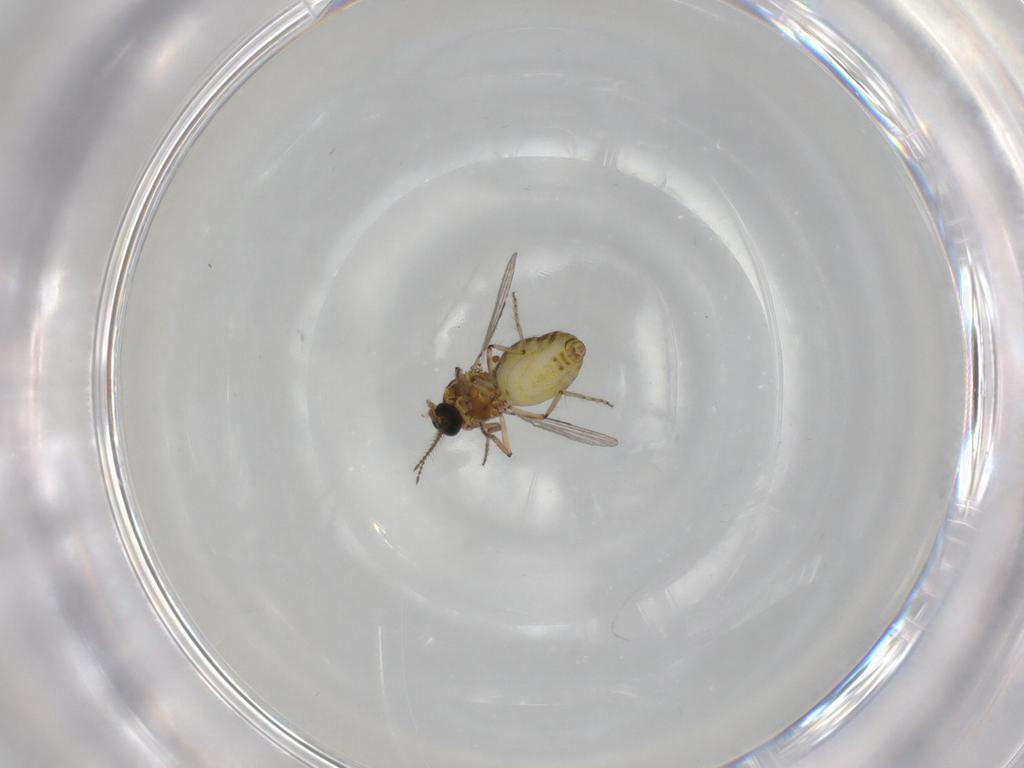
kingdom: Animalia
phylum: Arthropoda
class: Insecta
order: Diptera
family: Ceratopogonidae
